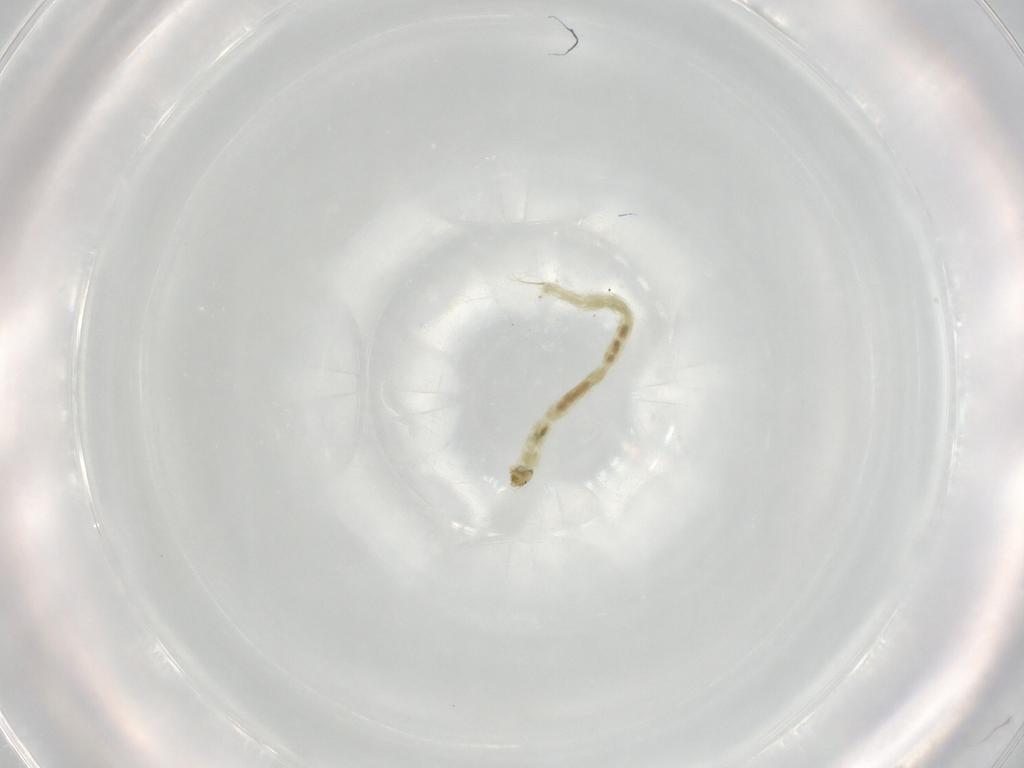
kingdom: Animalia
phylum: Arthropoda
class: Insecta
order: Diptera
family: Chironomidae
